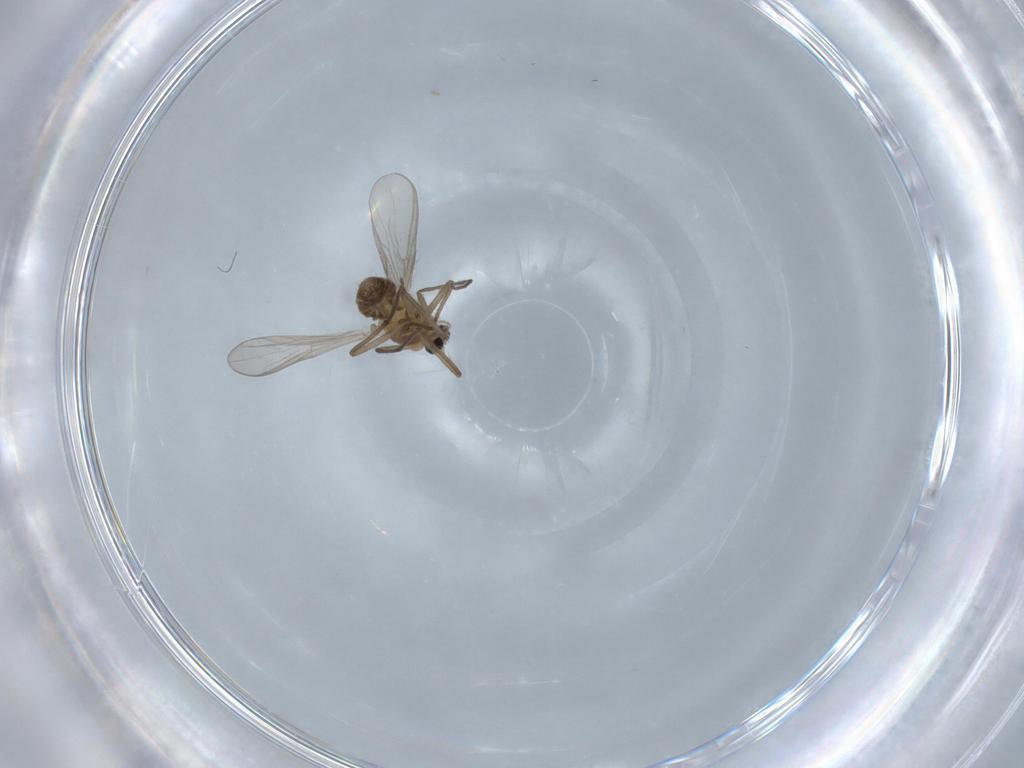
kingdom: Animalia
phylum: Arthropoda
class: Insecta
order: Diptera
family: Chironomidae
